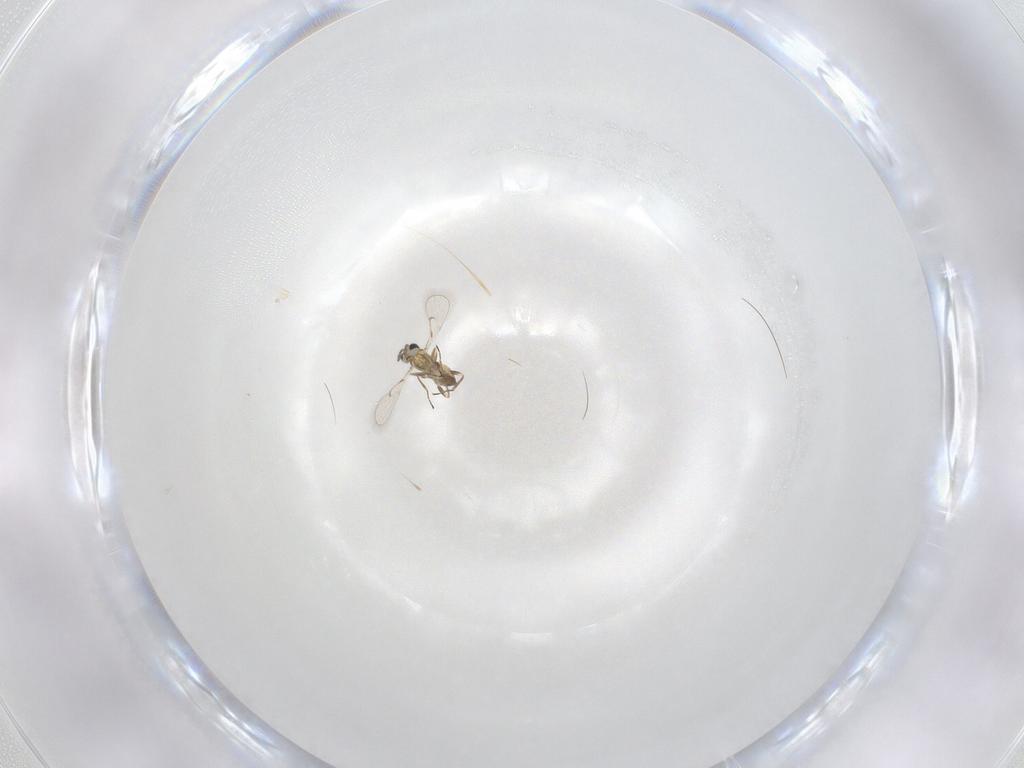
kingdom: Animalia
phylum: Arthropoda
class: Insecta
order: Hymenoptera
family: Trichogrammatidae
